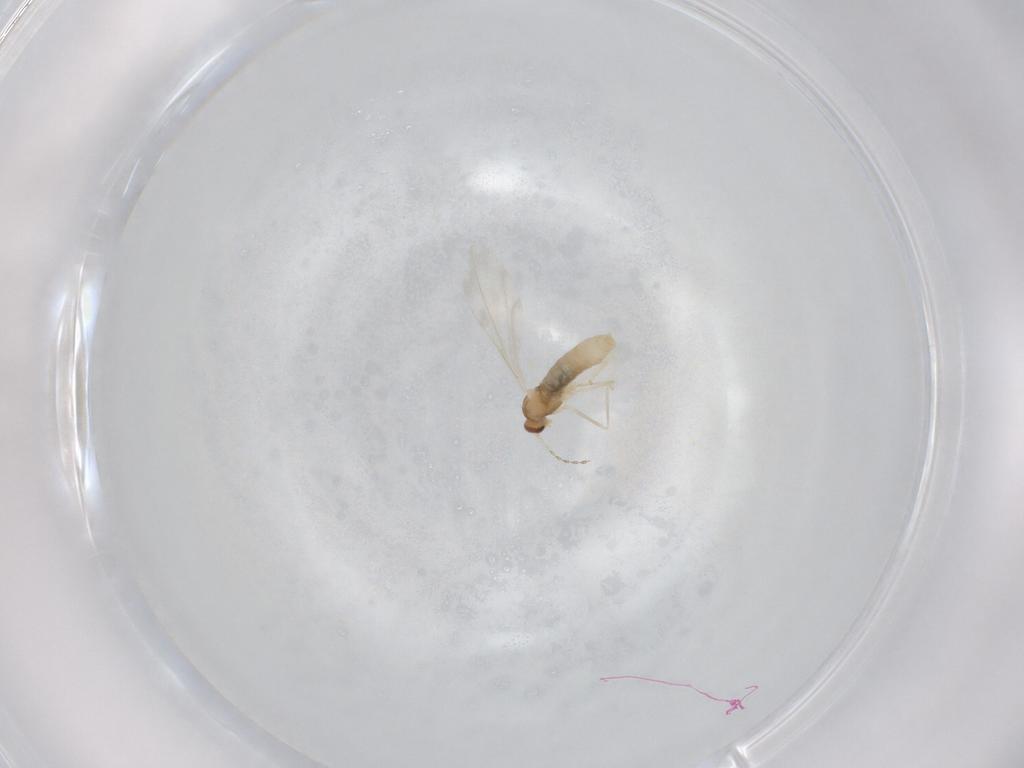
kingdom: Animalia
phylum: Arthropoda
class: Insecta
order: Diptera
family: Cecidomyiidae
